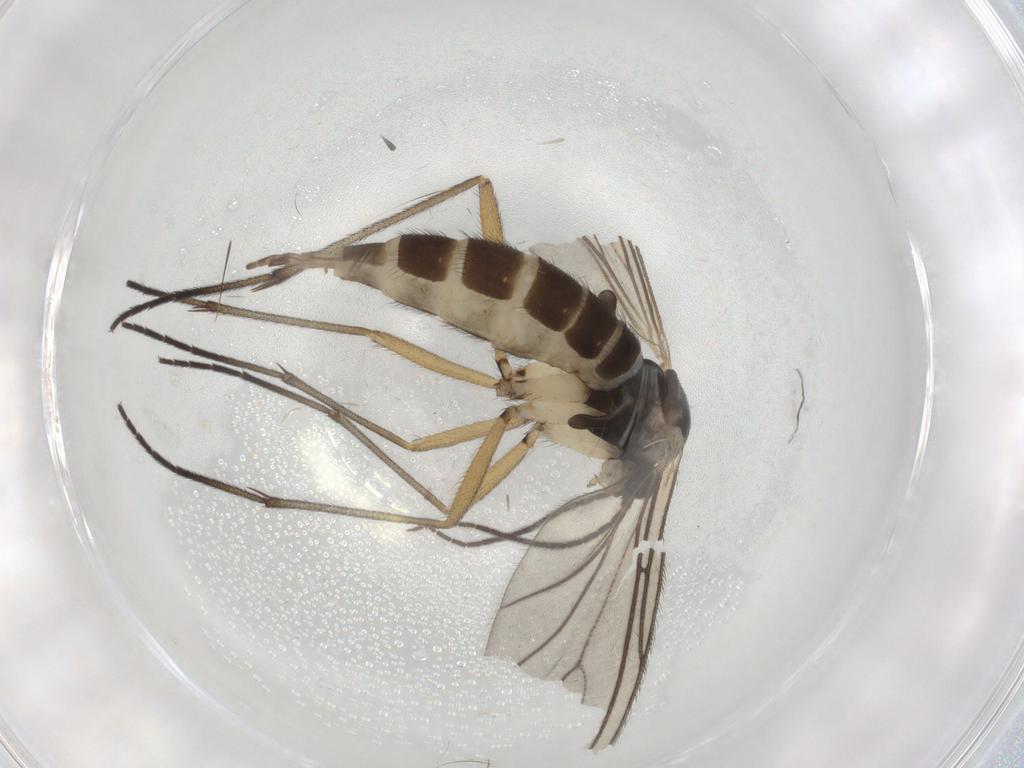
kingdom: Animalia
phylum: Arthropoda
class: Insecta
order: Diptera
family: Sciaridae
